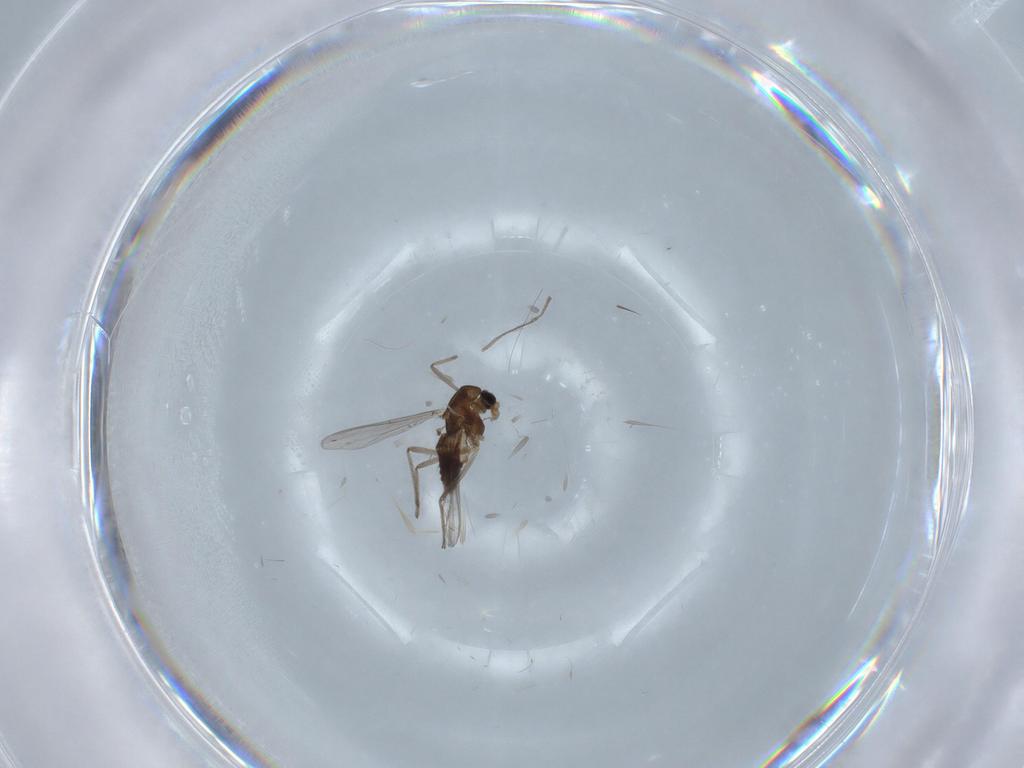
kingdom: Animalia
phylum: Arthropoda
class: Insecta
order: Diptera
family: Chironomidae
